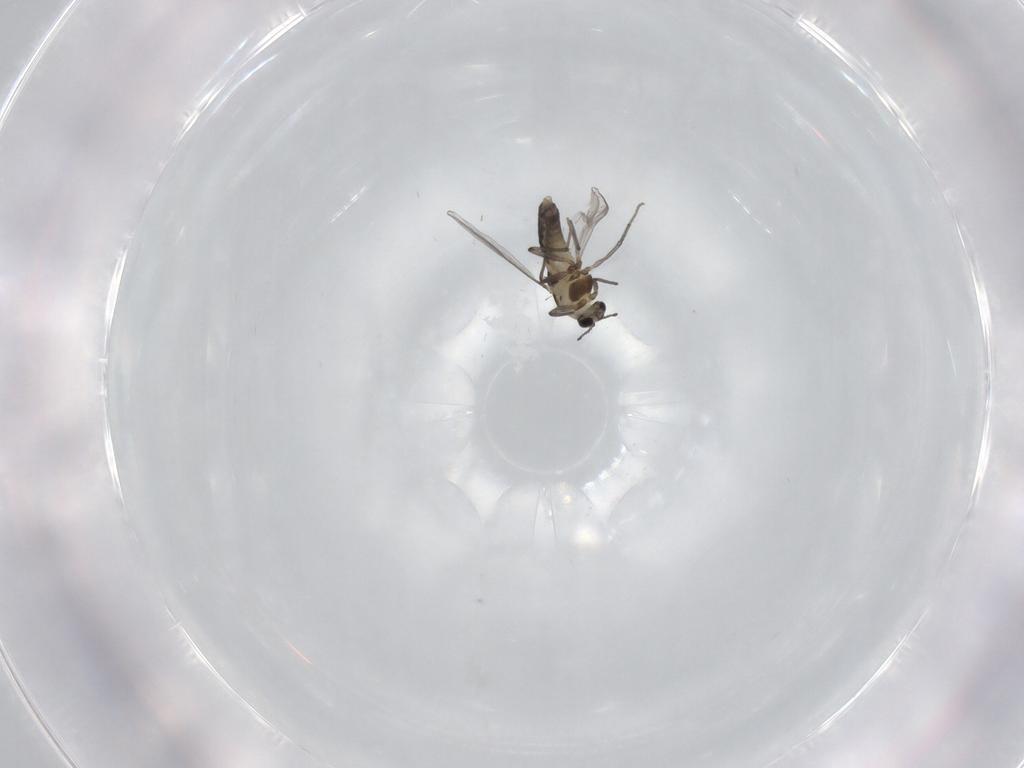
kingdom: Animalia
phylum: Arthropoda
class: Insecta
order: Diptera
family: Chironomidae
